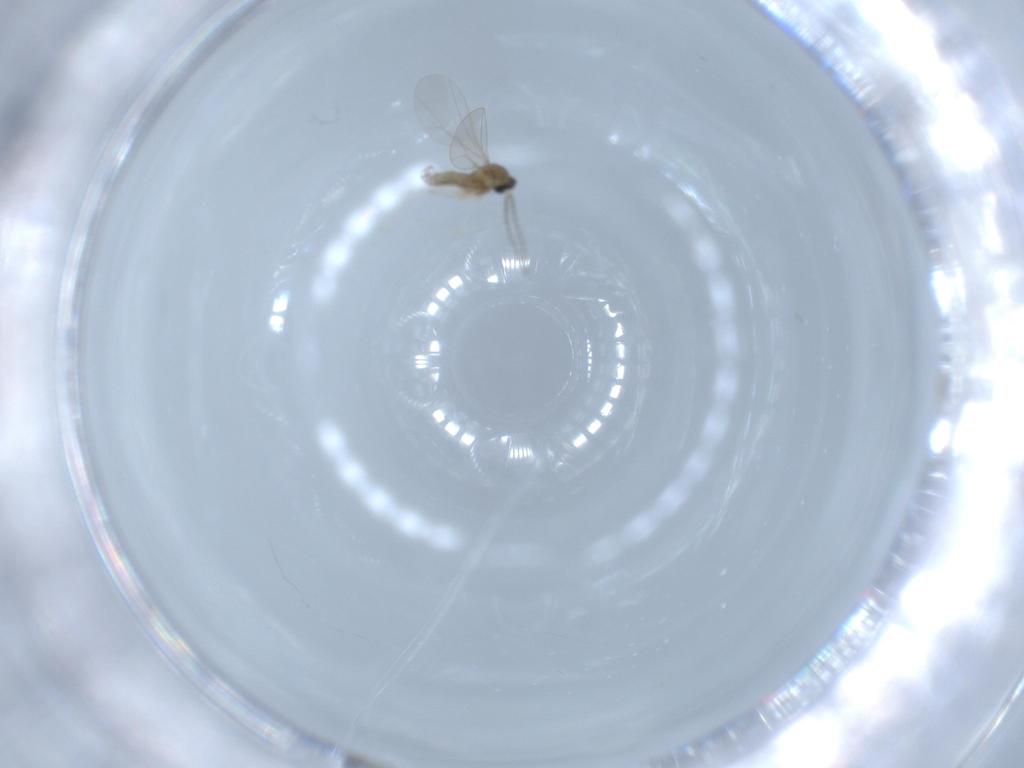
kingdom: Animalia
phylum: Arthropoda
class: Insecta
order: Diptera
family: Cecidomyiidae
